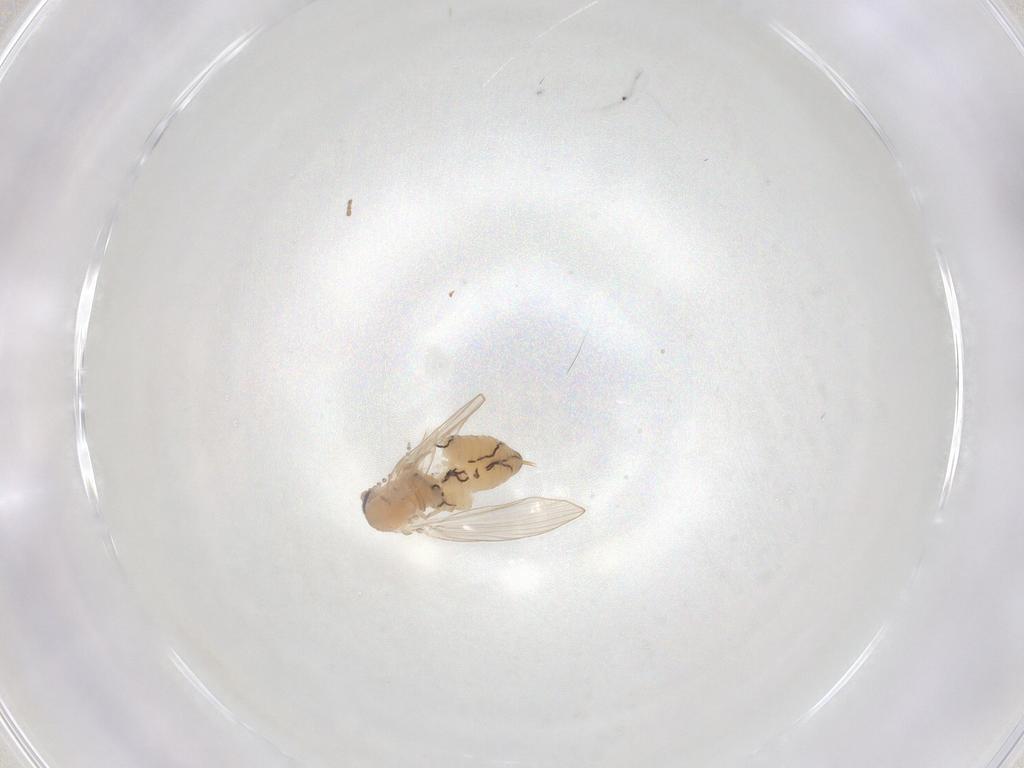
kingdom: Animalia
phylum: Arthropoda
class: Insecta
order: Diptera
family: Psychodidae
